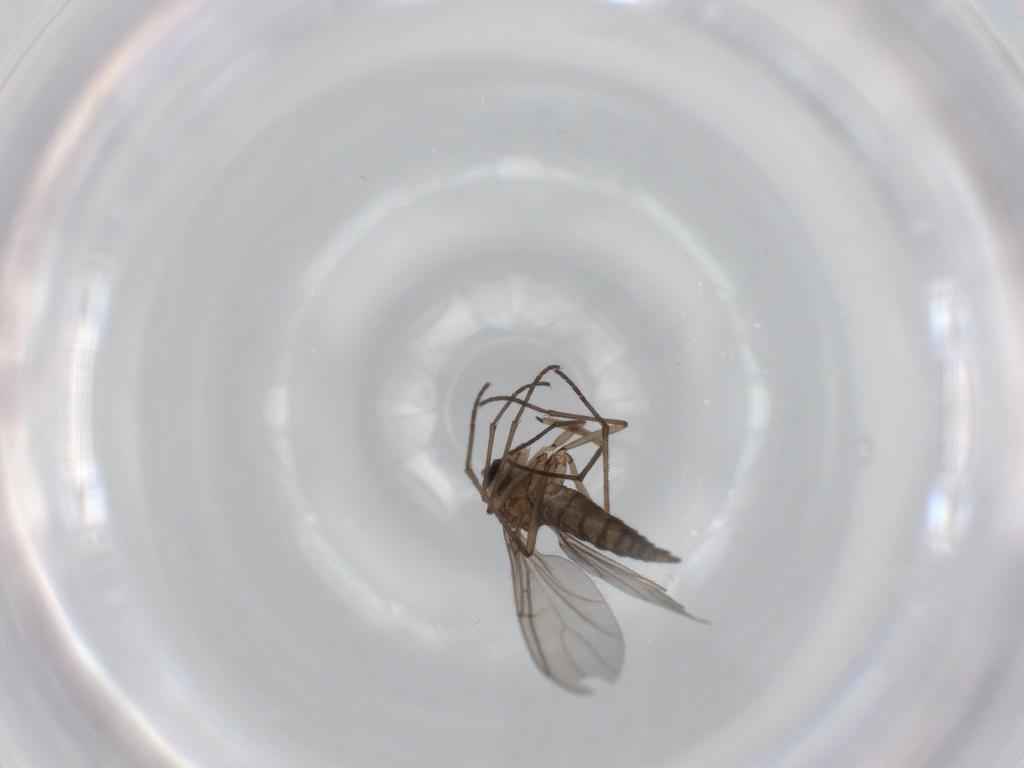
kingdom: Animalia
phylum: Arthropoda
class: Insecta
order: Diptera
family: Sciaridae
